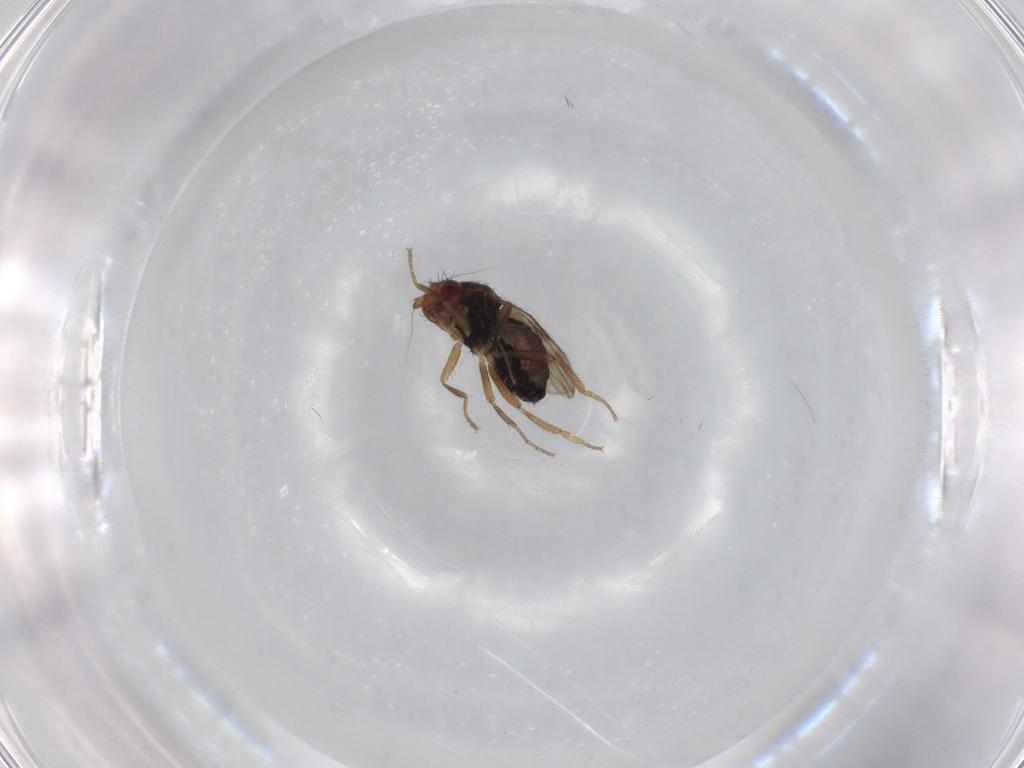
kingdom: Animalia
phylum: Arthropoda
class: Insecta
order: Diptera
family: Sphaeroceridae
